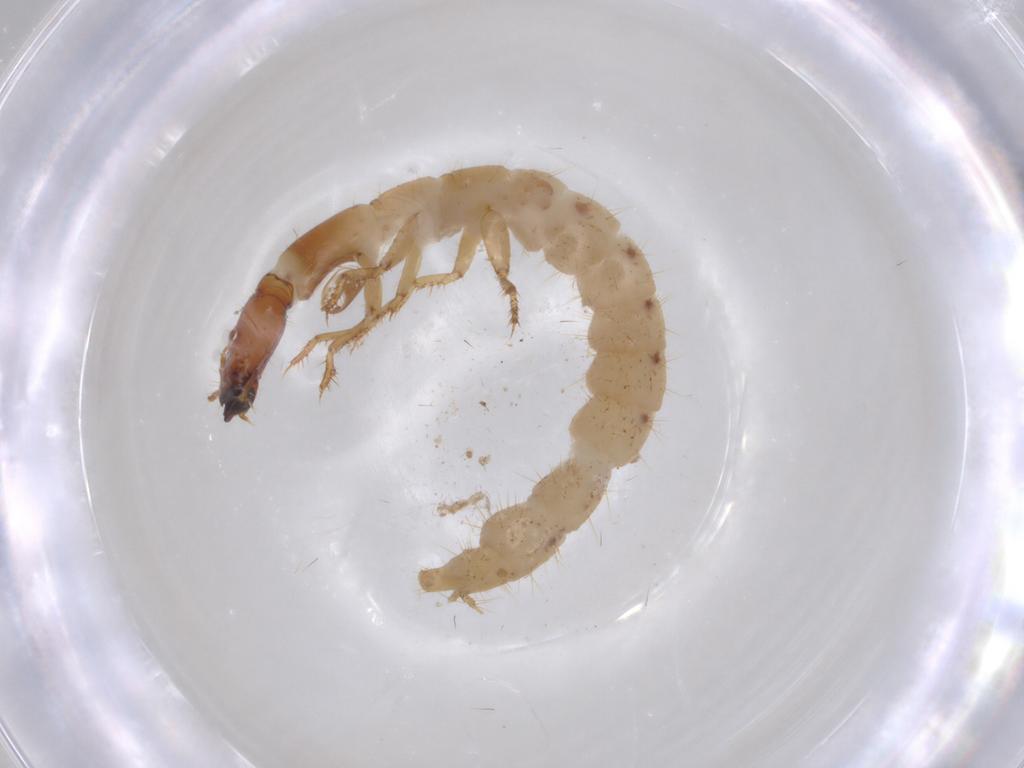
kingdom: Animalia
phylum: Arthropoda
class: Insecta
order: Coleoptera
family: Staphylinidae
